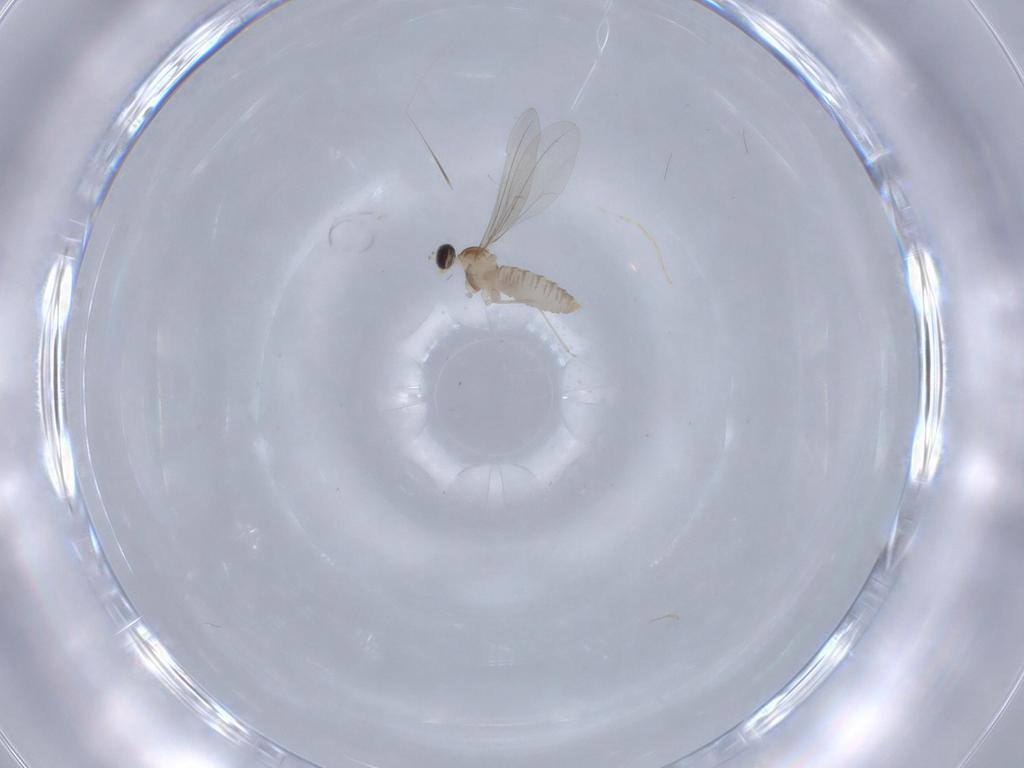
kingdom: Animalia
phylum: Arthropoda
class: Insecta
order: Diptera
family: Cecidomyiidae
